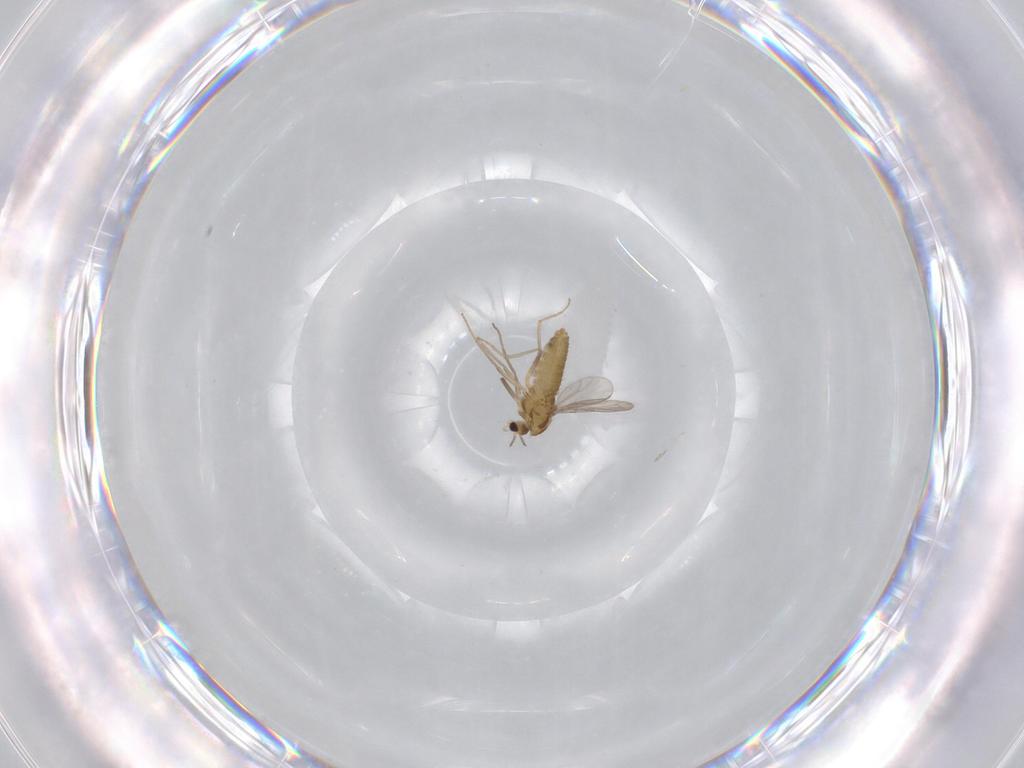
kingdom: Animalia
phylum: Arthropoda
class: Insecta
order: Diptera
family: Chironomidae
